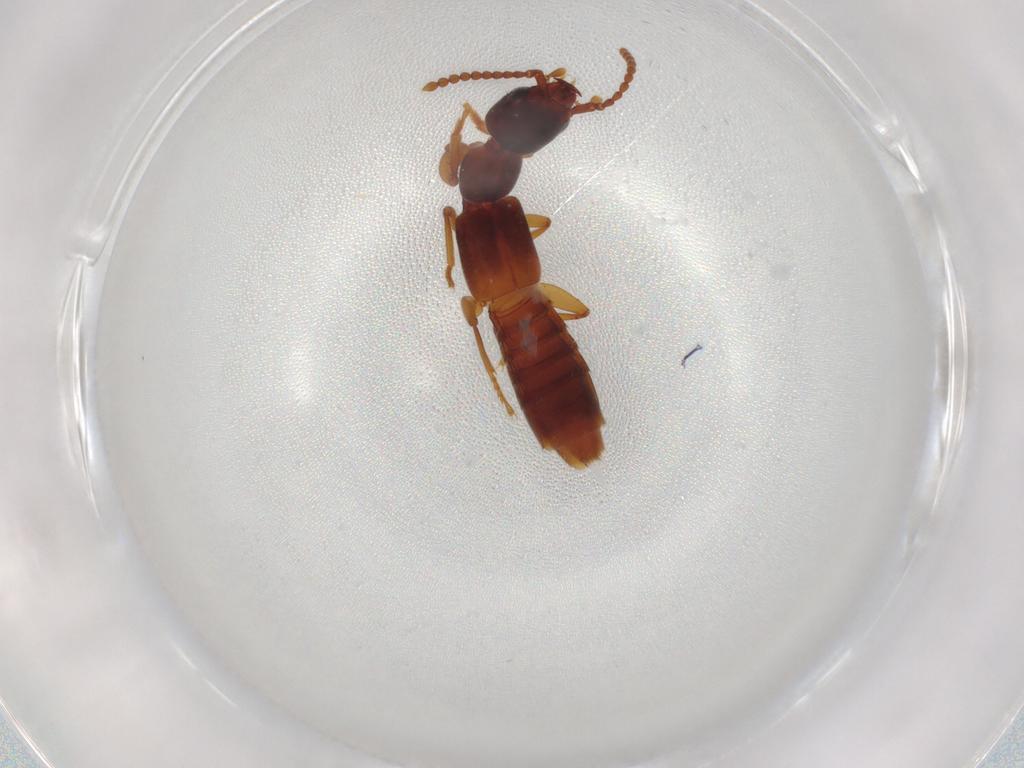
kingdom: Animalia
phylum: Arthropoda
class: Insecta
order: Coleoptera
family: Staphylinidae
